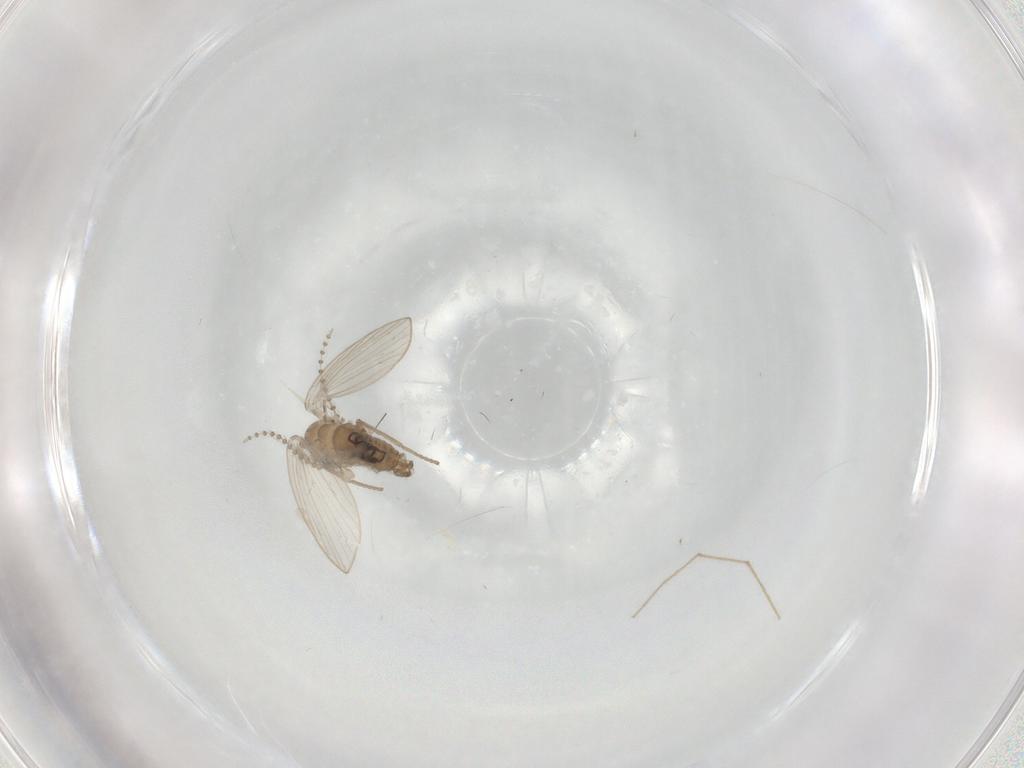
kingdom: Animalia
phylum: Arthropoda
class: Insecta
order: Diptera
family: Psychodidae
